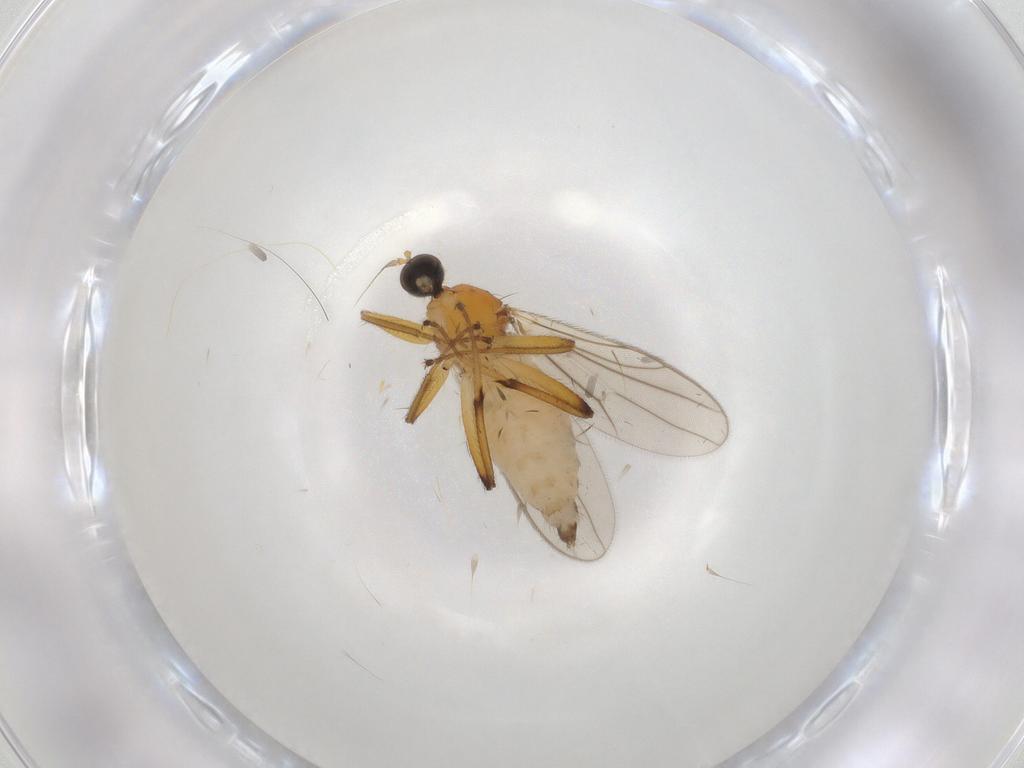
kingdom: Animalia
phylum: Arthropoda
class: Insecta
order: Diptera
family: Hybotidae
